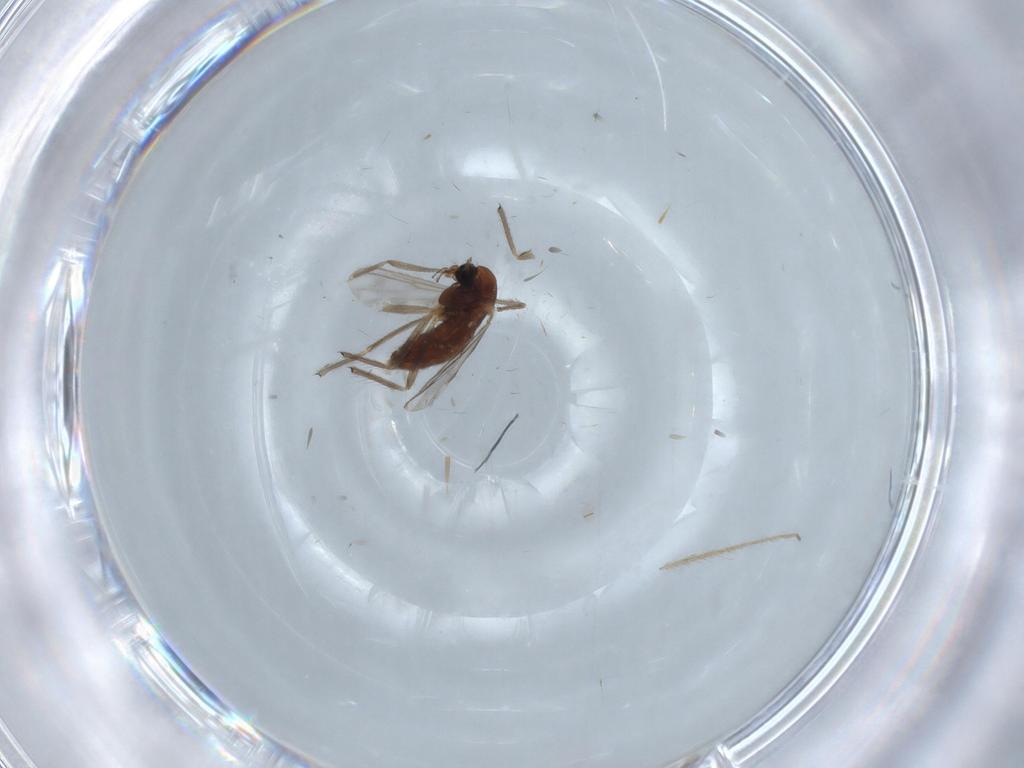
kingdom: Animalia
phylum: Arthropoda
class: Insecta
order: Diptera
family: Chironomidae
